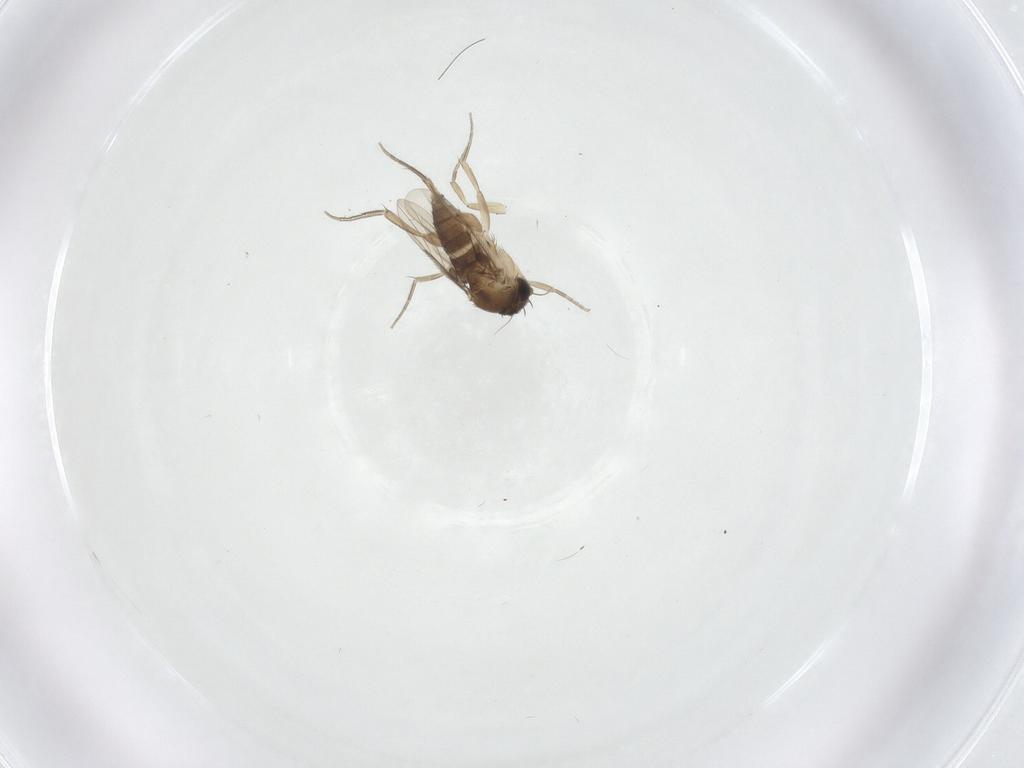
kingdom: Animalia
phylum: Arthropoda
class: Insecta
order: Diptera
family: Phoridae
